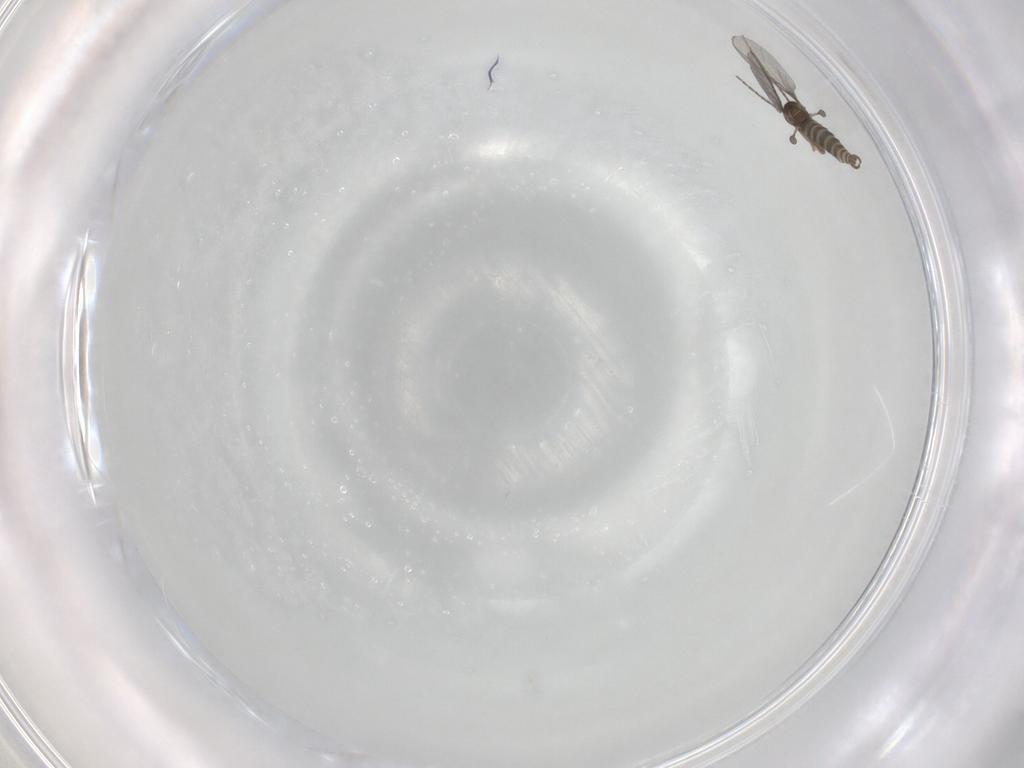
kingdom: Animalia
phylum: Arthropoda
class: Insecta
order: Diptera
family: Sciaridae
